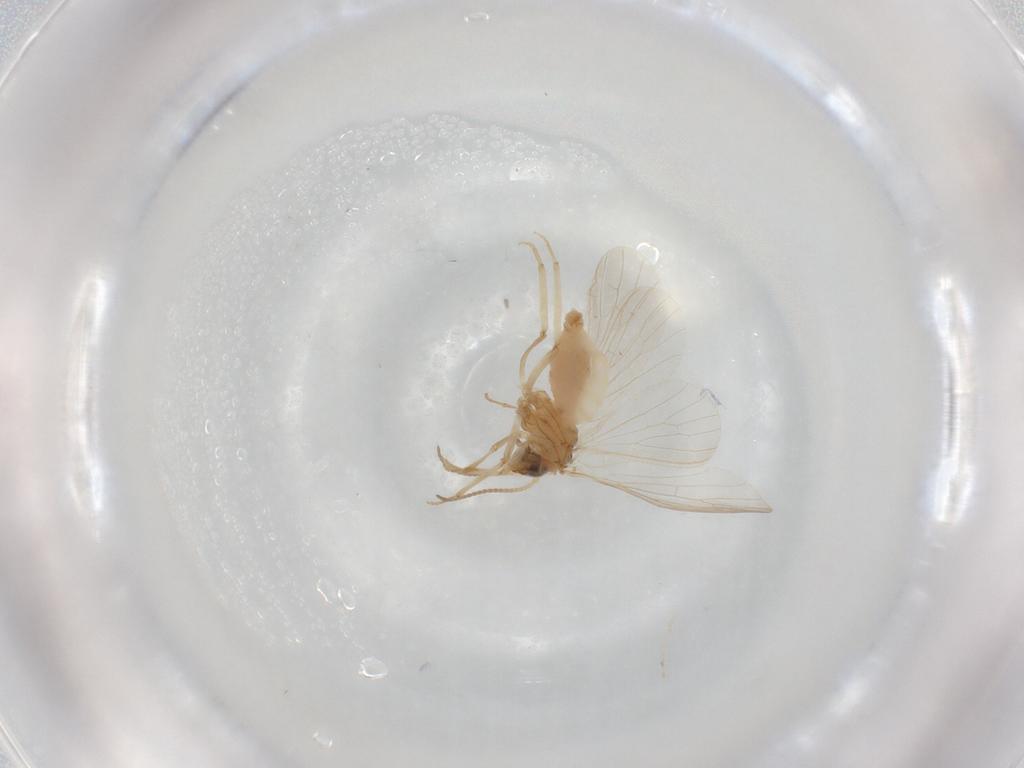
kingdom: Animalia
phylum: Arthropoda
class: Insecta
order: Neuroptera
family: Coniopterygidae
